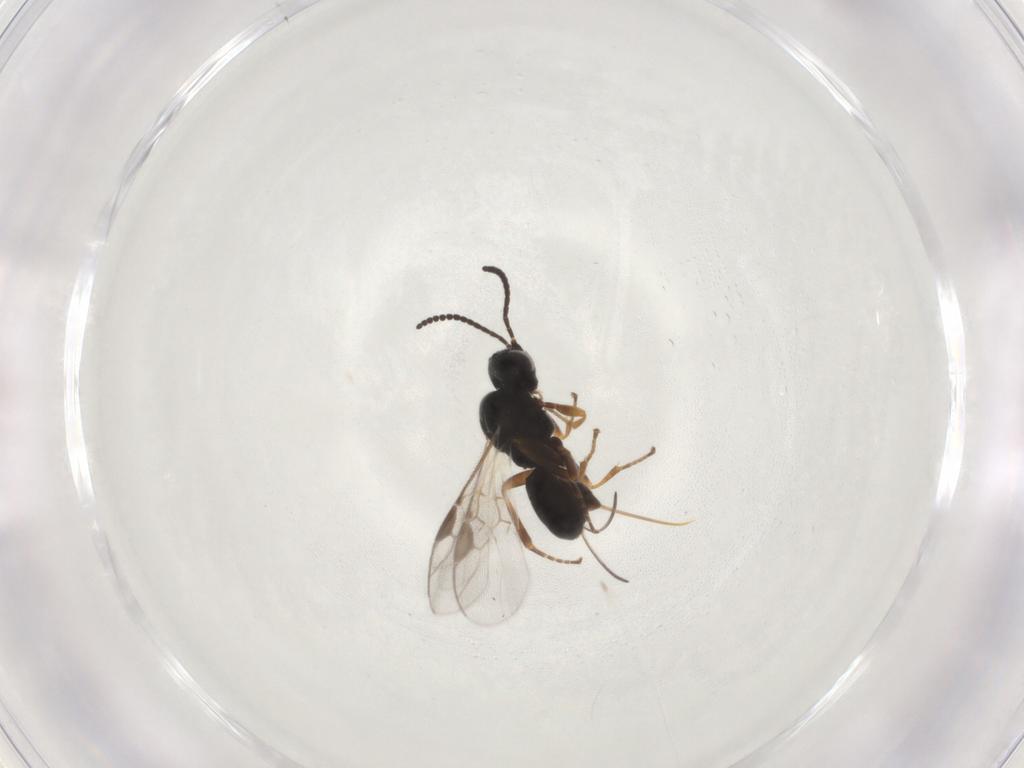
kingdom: Animalia
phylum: Arthropoda
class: Insecta
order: Hymenoptera
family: Braconidae
